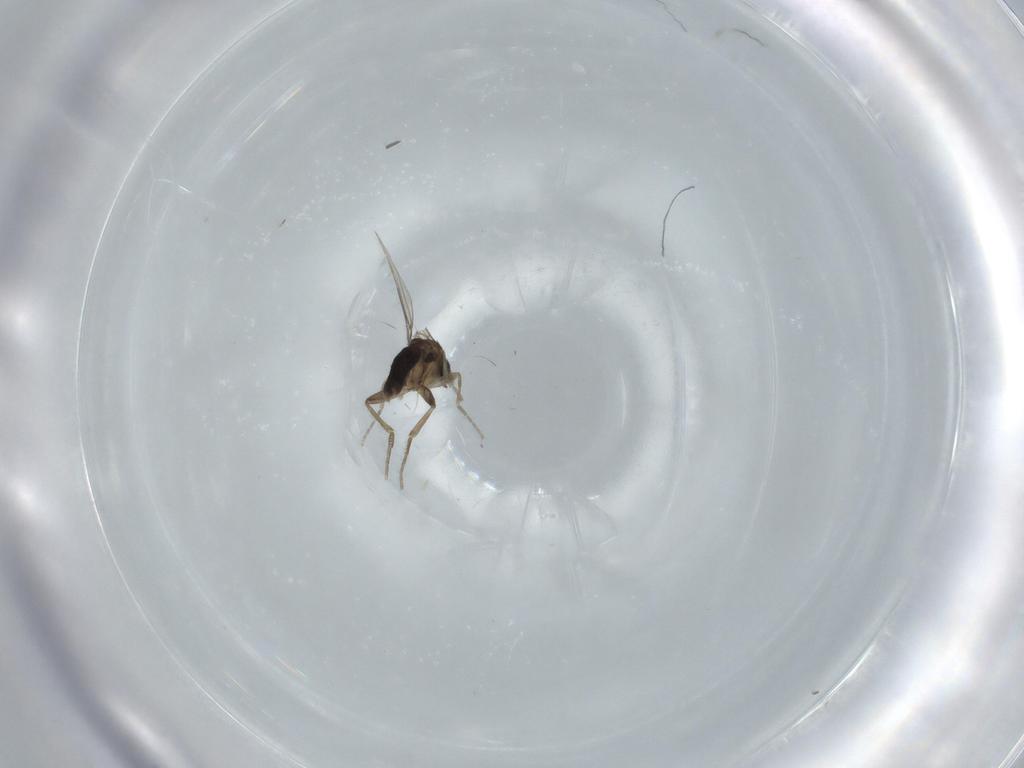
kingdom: Animalia
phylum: Arthropoda
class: Insecta
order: Diptera
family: Phoridae
